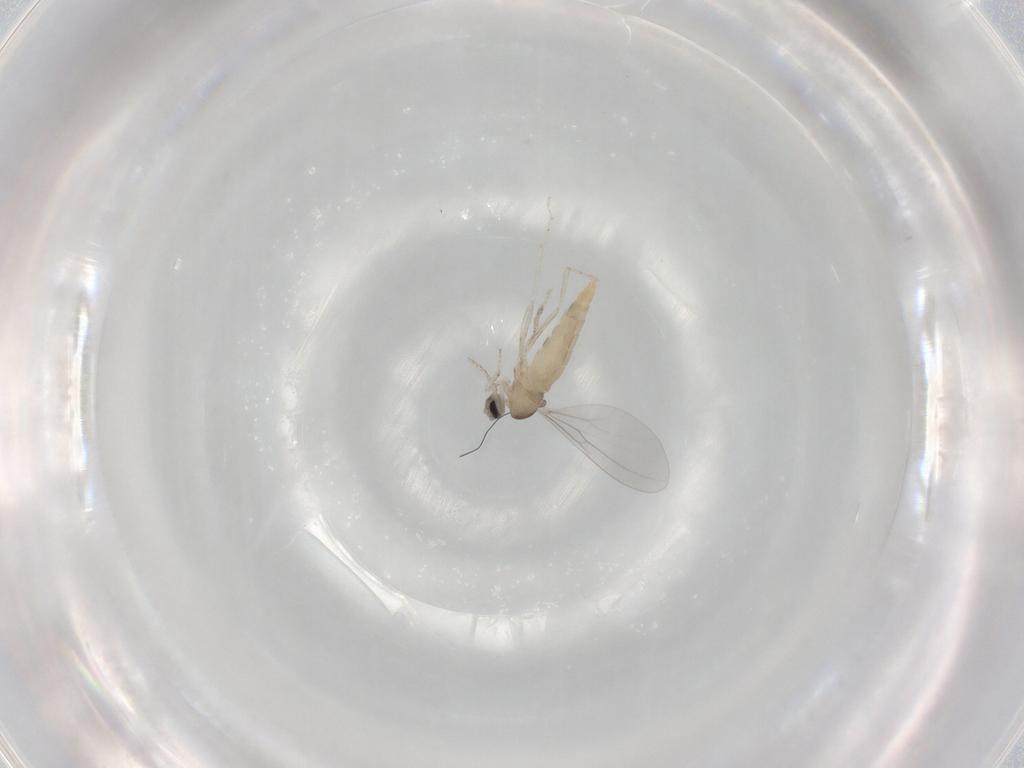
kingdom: Animalia
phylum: Arthropoda
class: Insecta
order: Diptera
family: Cecidomyiidae
